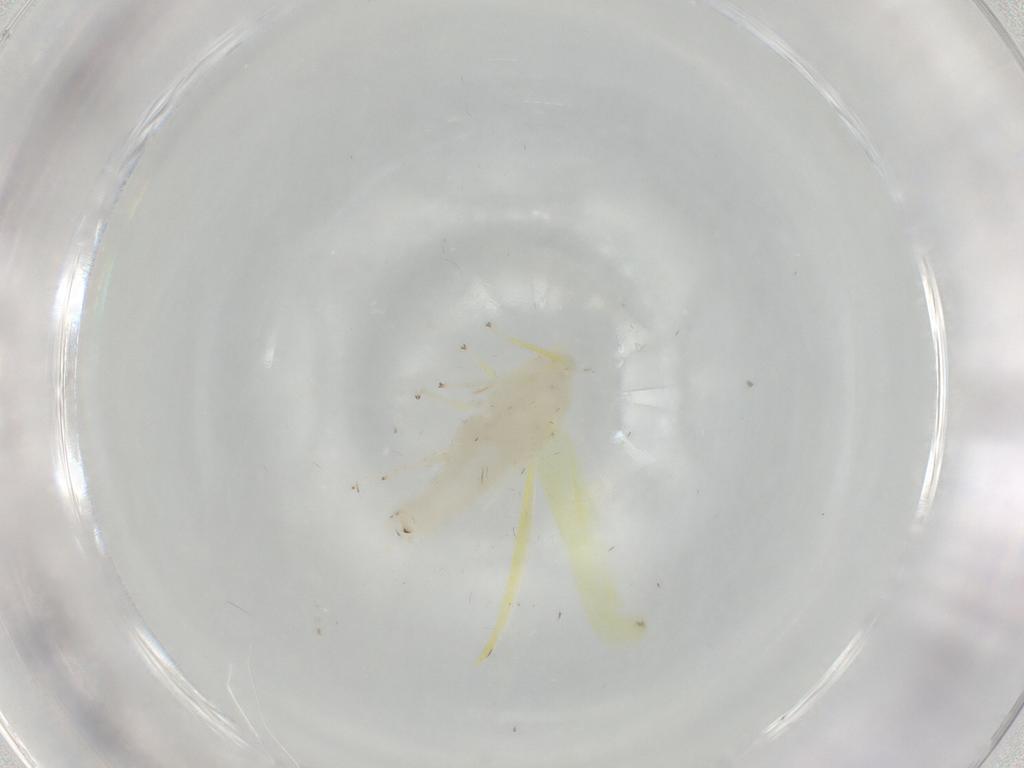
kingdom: Animalia
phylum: Arthropoda
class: Insecta
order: Hemiptera
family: Cicadellidae
